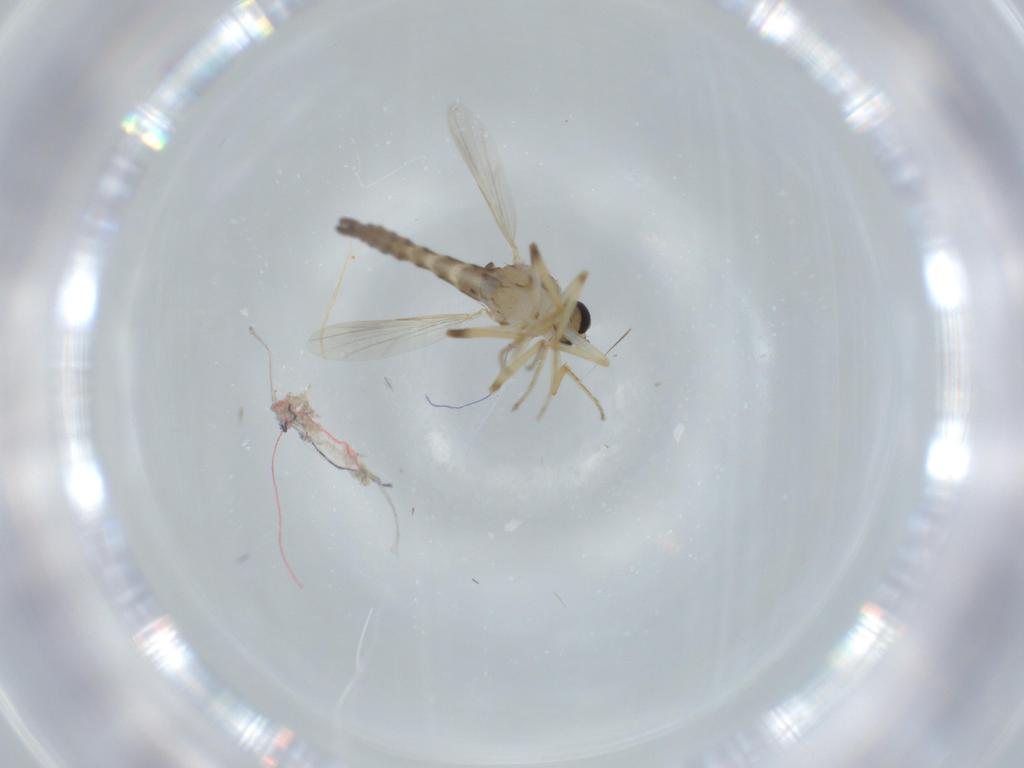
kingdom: Animalia
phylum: Arthropoda
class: Insecta
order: Diptera
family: Ceratopogonidae
